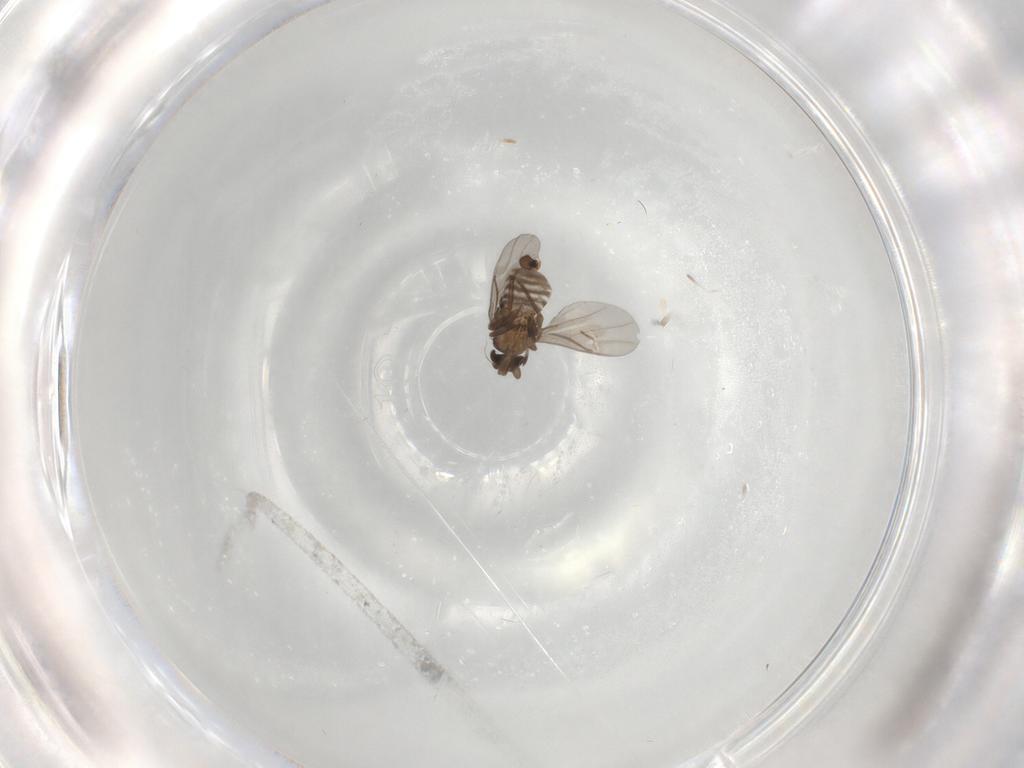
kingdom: Animalia
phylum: Arthropoda
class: Insecta
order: Diptera
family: Phoridae
